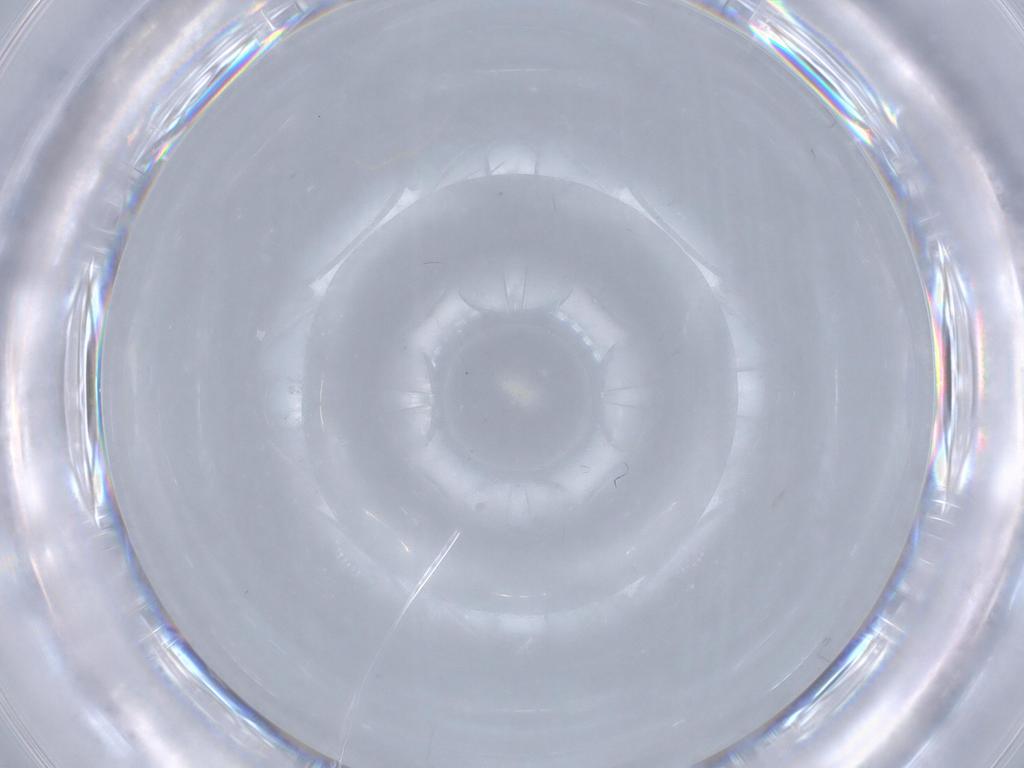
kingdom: Animalia
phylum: Arthropoda
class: Arachnida
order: Trombidiformes
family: Eupodidae
